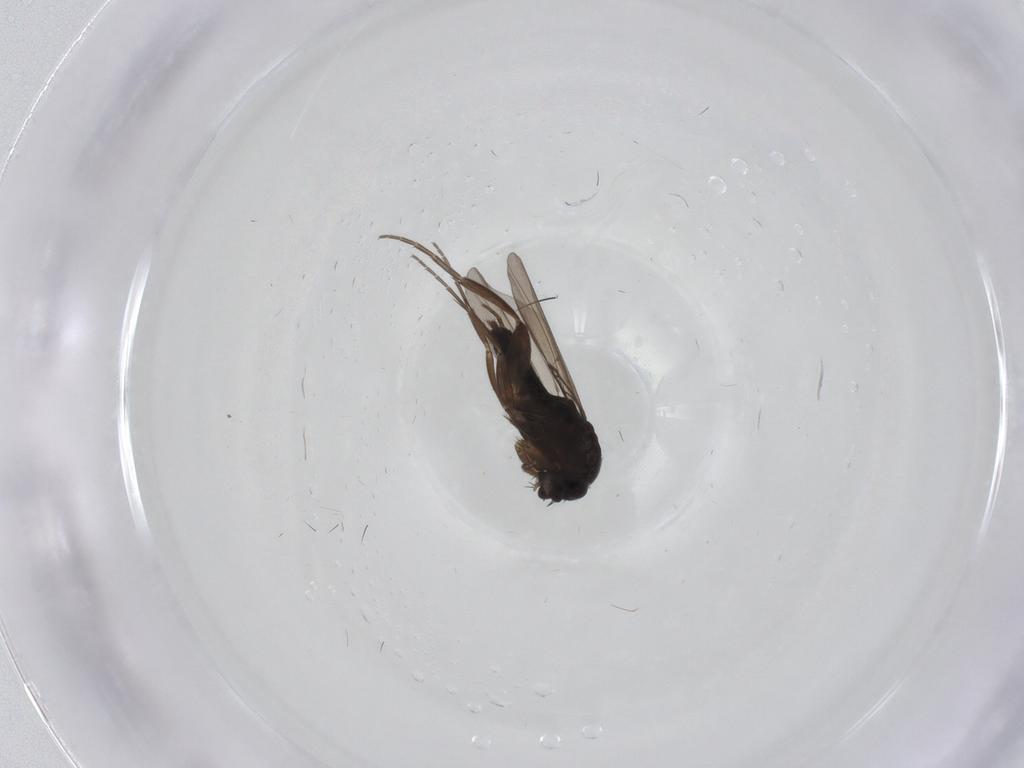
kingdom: Animalia
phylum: Arthropoda
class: Insecta
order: Diptera
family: Phoridae
